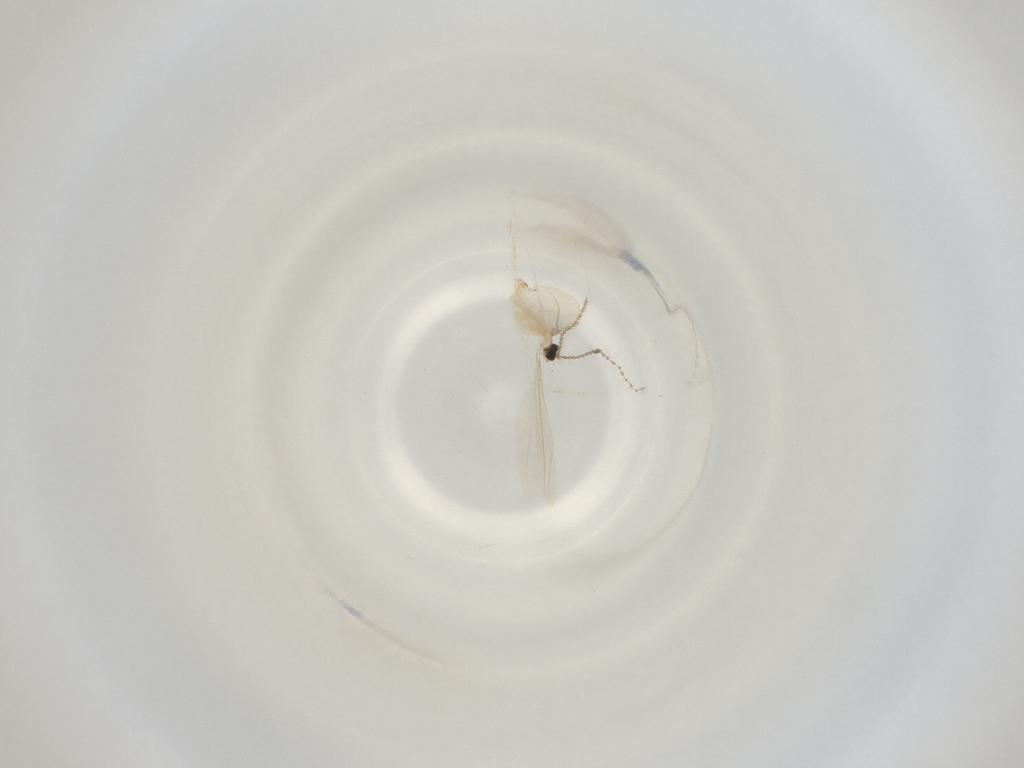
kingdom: Animalia
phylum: Arthropoda
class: Insecta
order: Diptera
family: Cecidomyiidae
